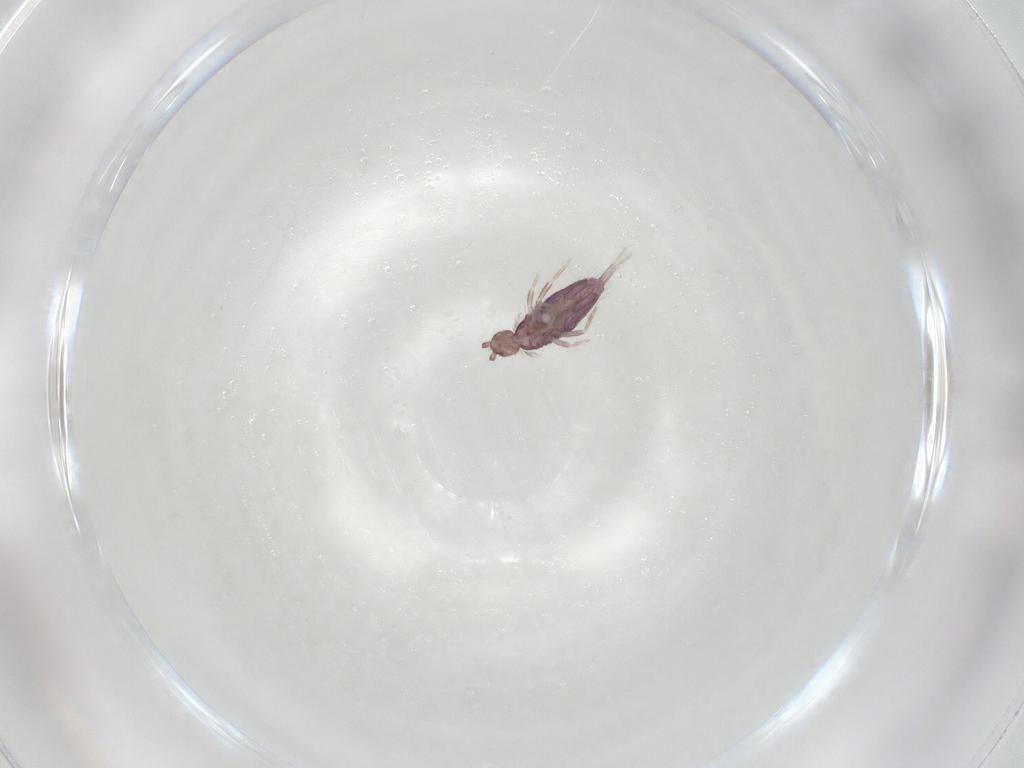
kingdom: Animalia
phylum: Arthropoda
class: Collembola
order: Entomobryomorpha
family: Entomobryidae
